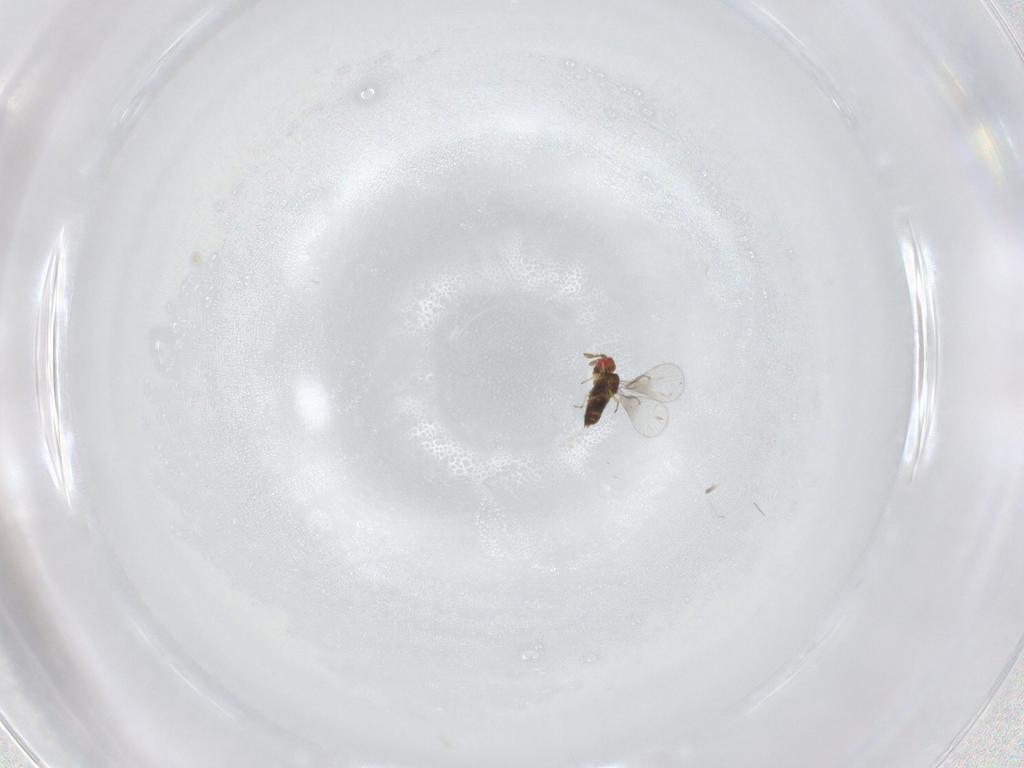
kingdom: Animalia
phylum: Arthropoda
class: Insecta
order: Hymenoptera
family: Trichogrammatidae
